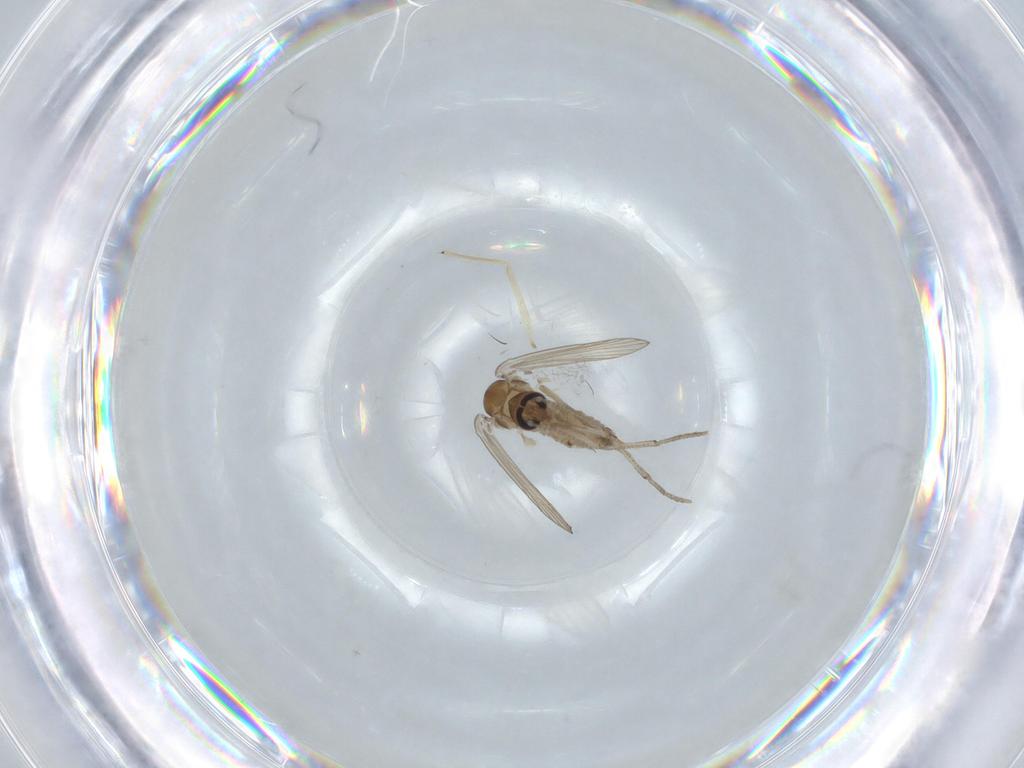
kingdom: Animalia
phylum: Arthropoda
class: Insecta
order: Diptera
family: Psychodidae
